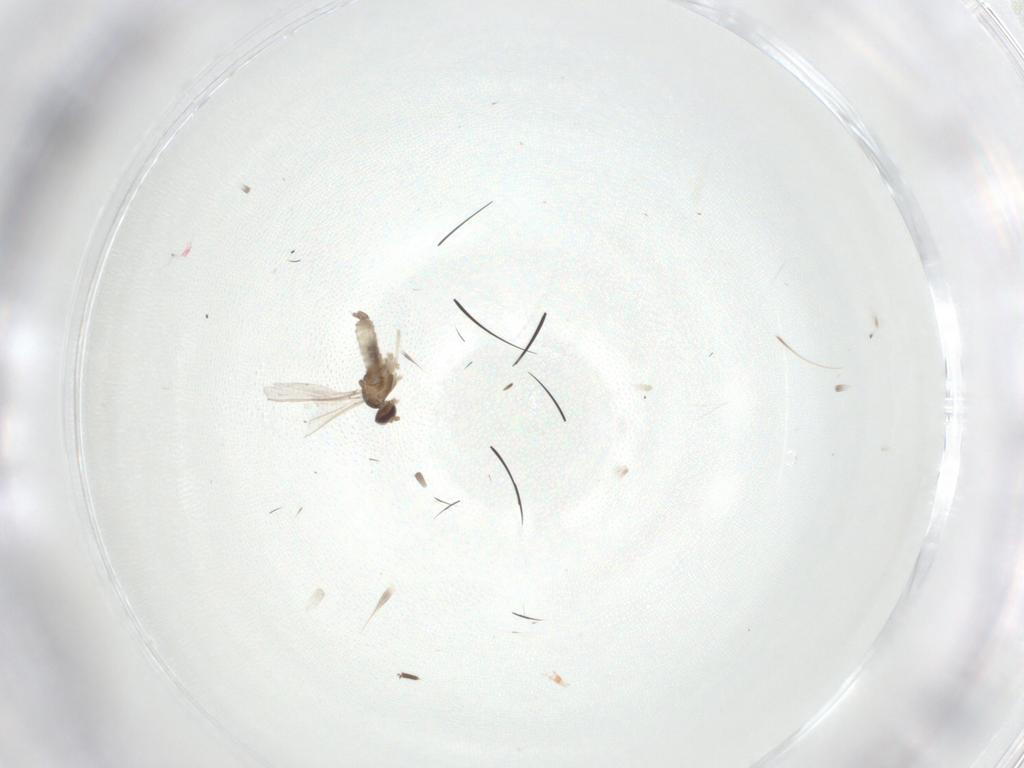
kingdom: Animalia
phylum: Arthropoda
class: Insecta
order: Diptera
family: Cecidomyiidae
